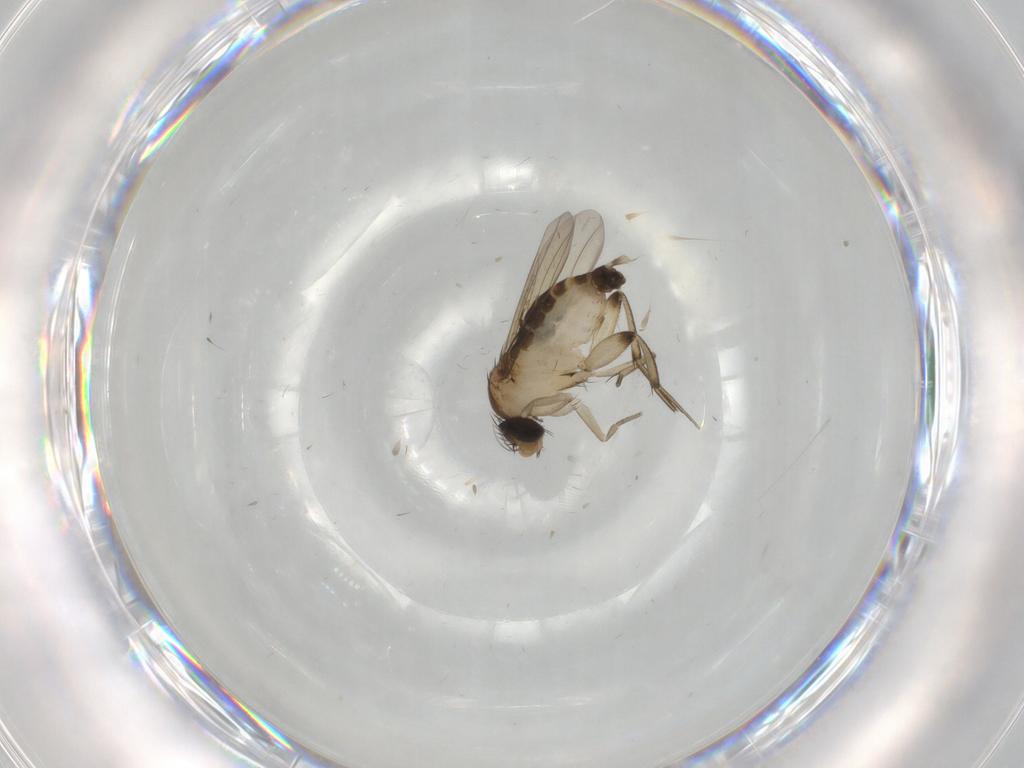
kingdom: Animalia
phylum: Arthropoda
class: Insecta
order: Diptera
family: Phoridae
